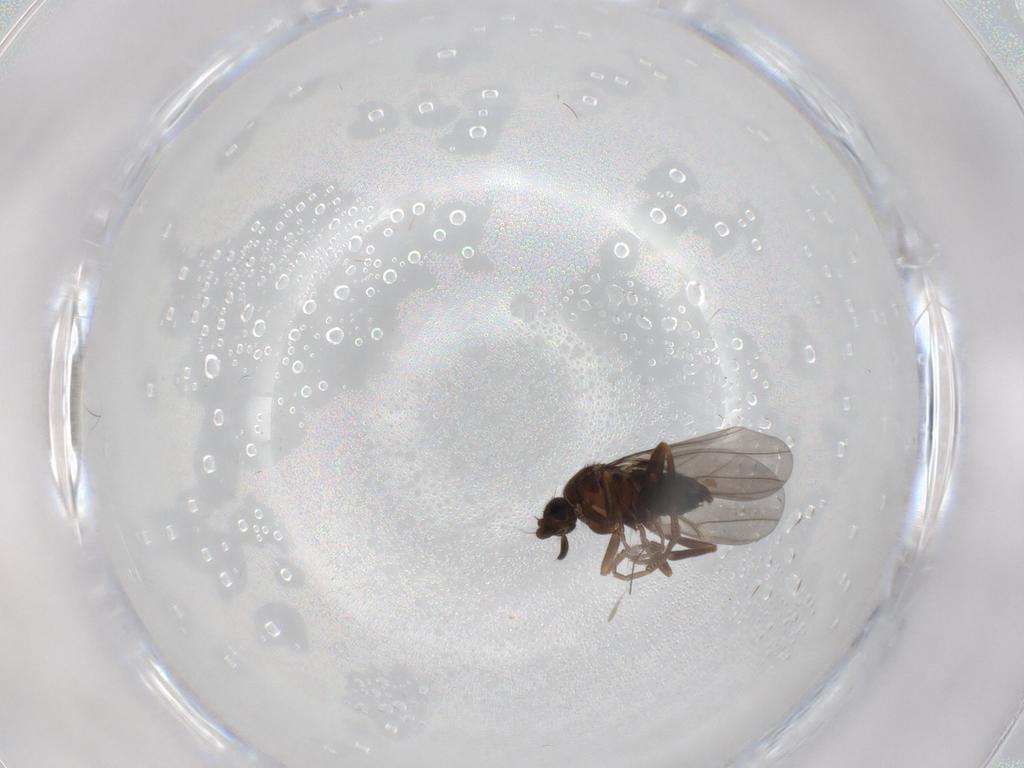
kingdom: Animalia
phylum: Arthropoda
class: Insecta
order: Diptera
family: Phoridae
